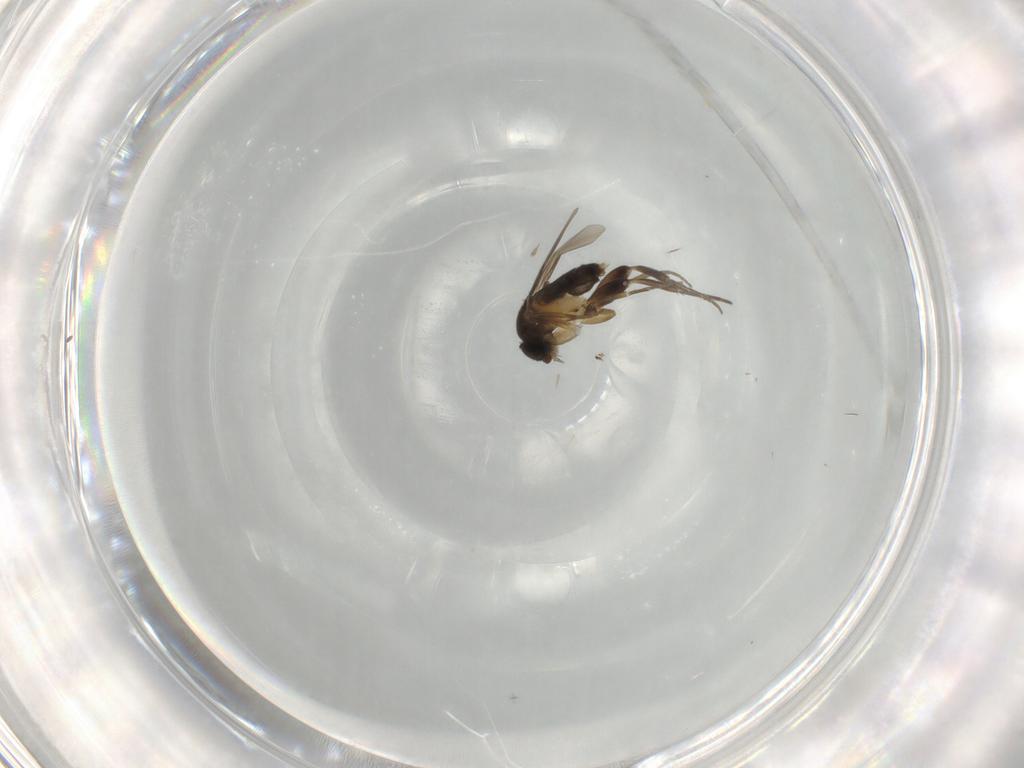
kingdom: Animalia
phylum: Arthropoda
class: Insecta
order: Diptera
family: Phoridae
